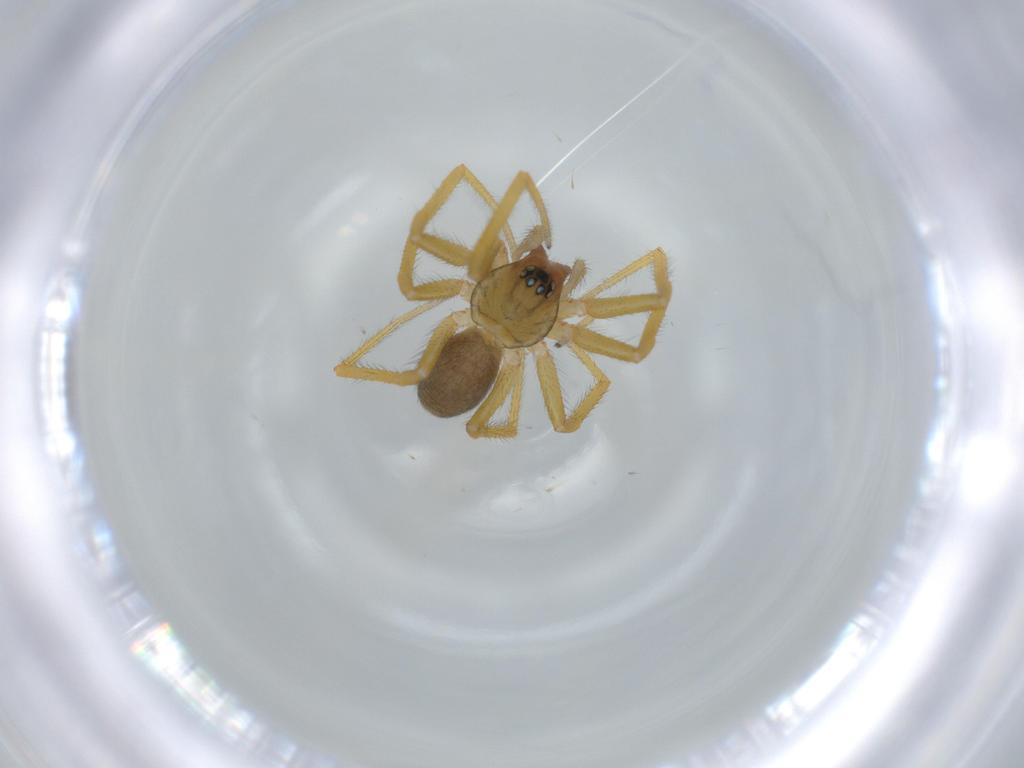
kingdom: Animalia
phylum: Arthropoda
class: Arachnida
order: Araneae
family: Linyphiidae
